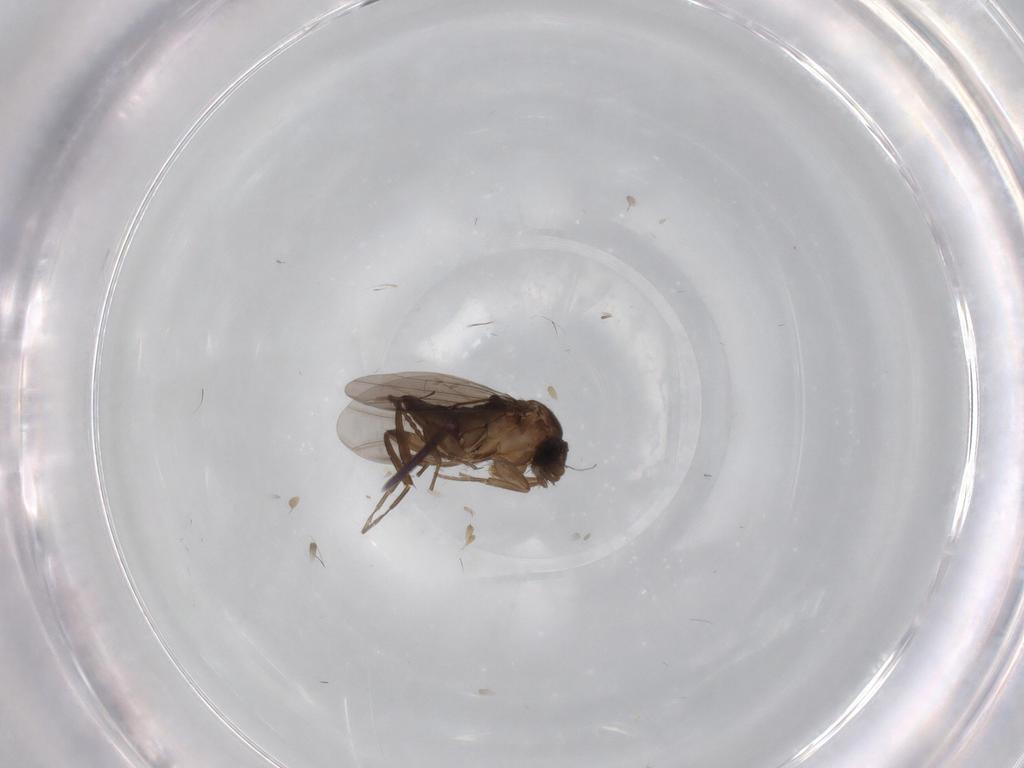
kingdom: Animalia
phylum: Arthropoda
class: Insecta
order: Diptera
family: Phoridae
